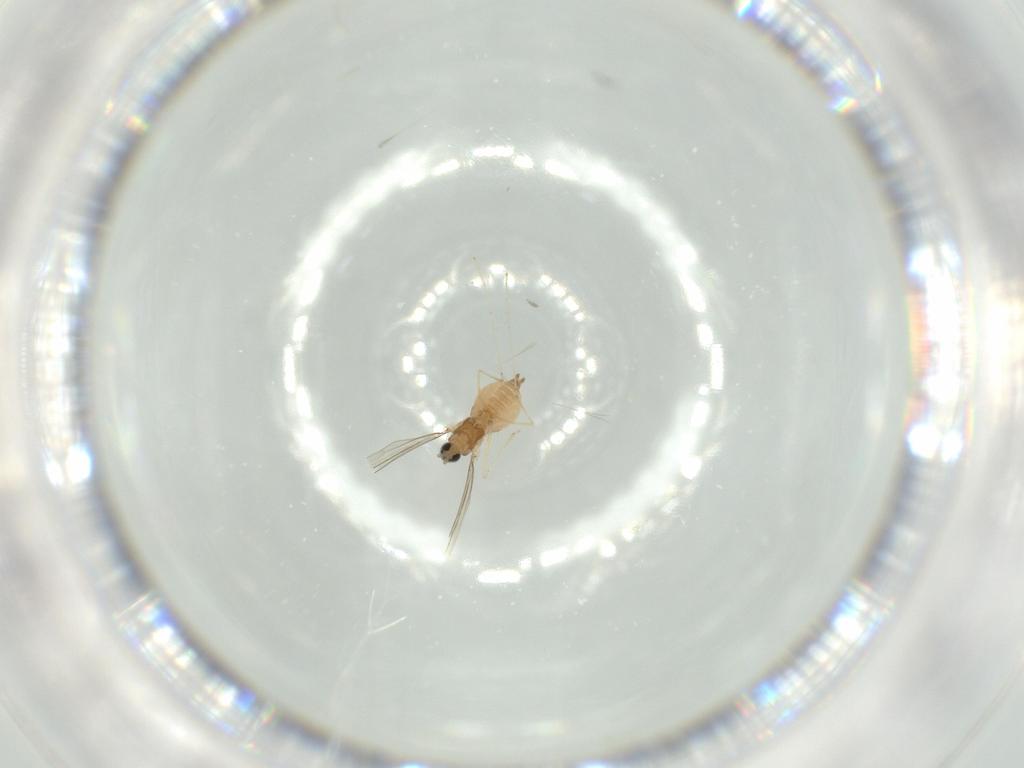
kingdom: Animalia
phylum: Arthropoda
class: Insecta
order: Diptera
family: Cecidomyiidae
